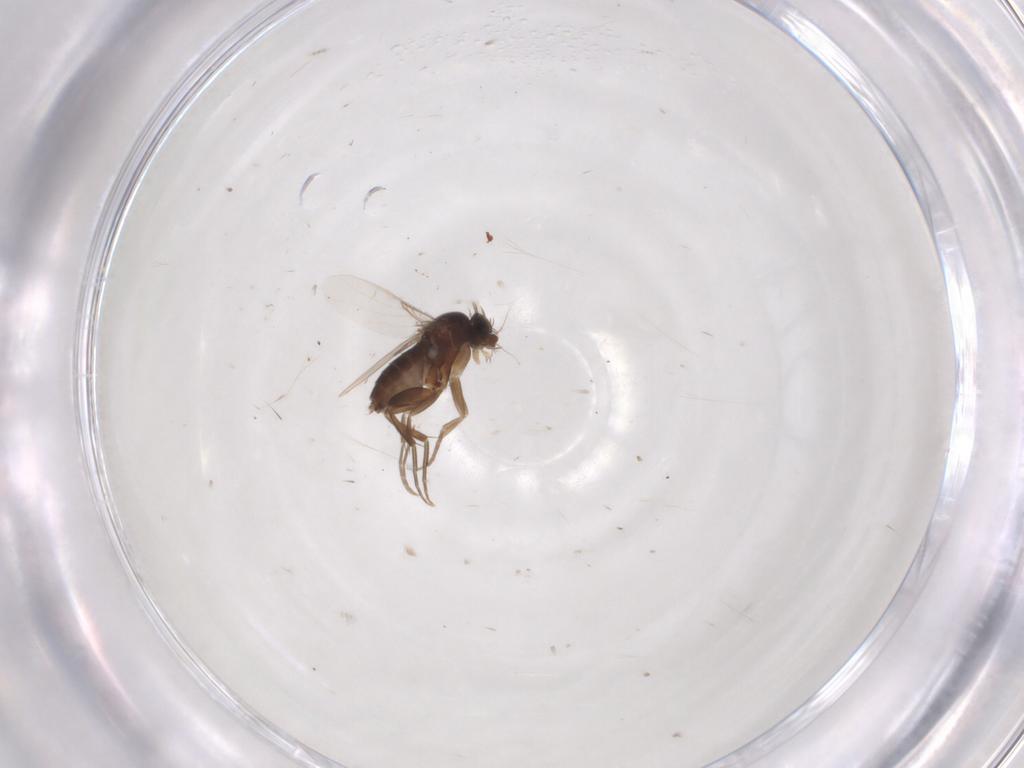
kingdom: Animalia
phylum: Arthropoda
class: Insecta
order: Diptera
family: Phoridae
